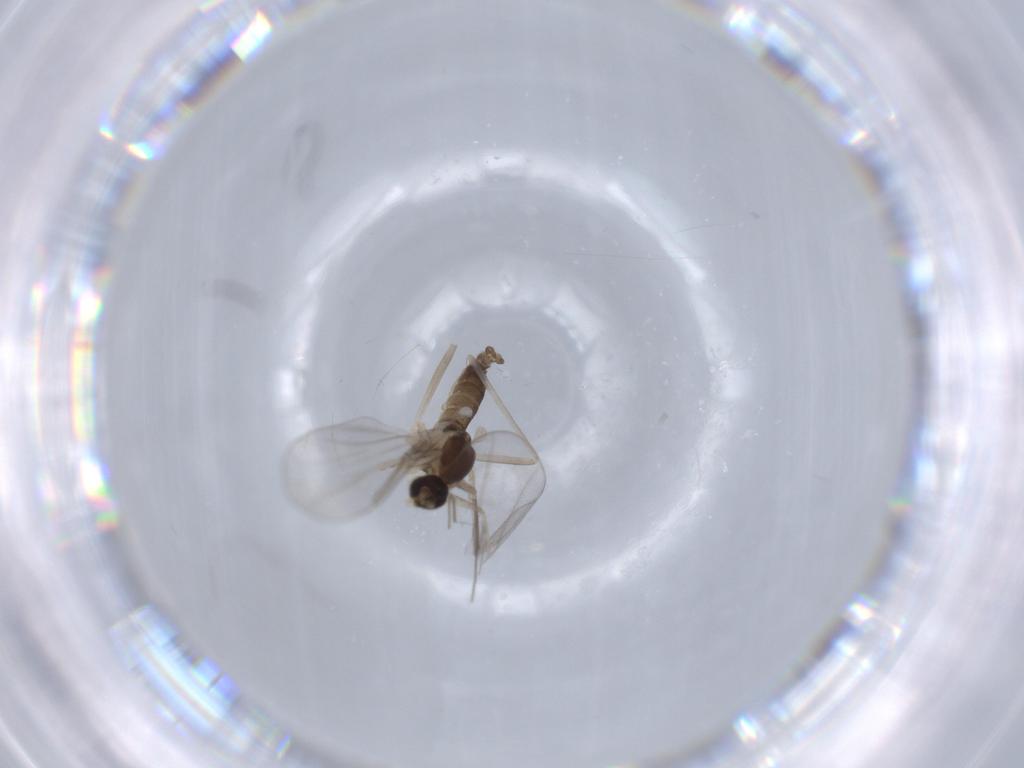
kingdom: Animalia
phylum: Arthropoda
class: Insecta
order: Diptera
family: Cecidomyiidae
